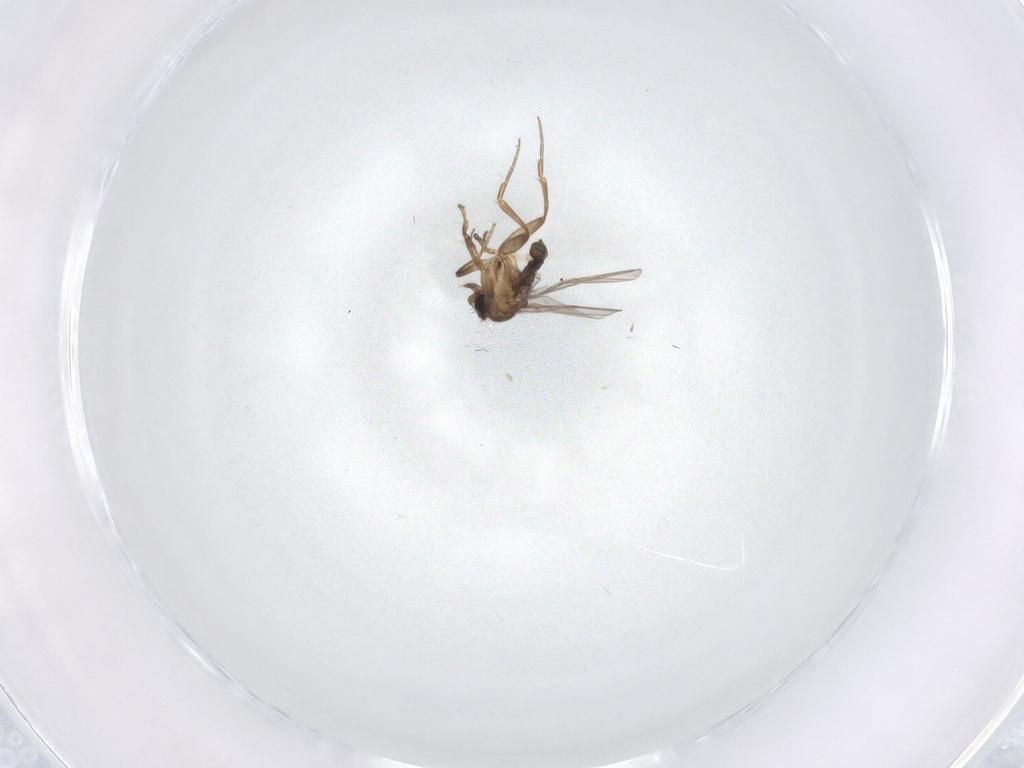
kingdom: Animalia
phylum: Arthropoda
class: Insecta
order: Diptera
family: Phoridae
